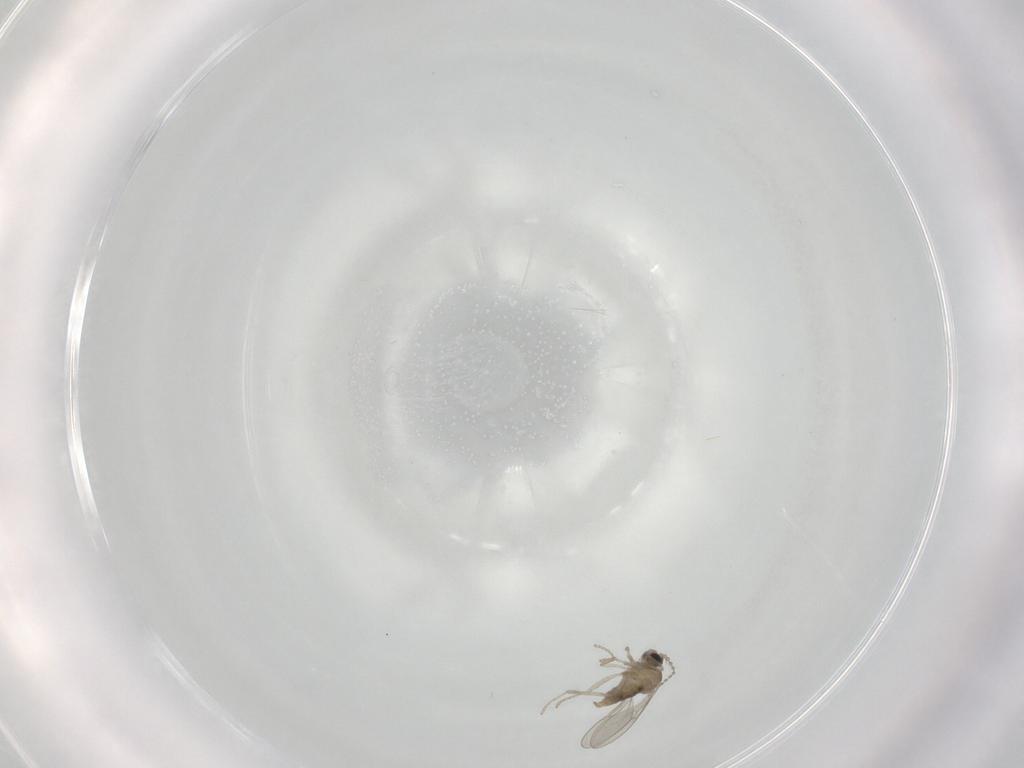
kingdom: Animalia
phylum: Arthropoda
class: Insecta
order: Diptera
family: Cecidomyiidae
